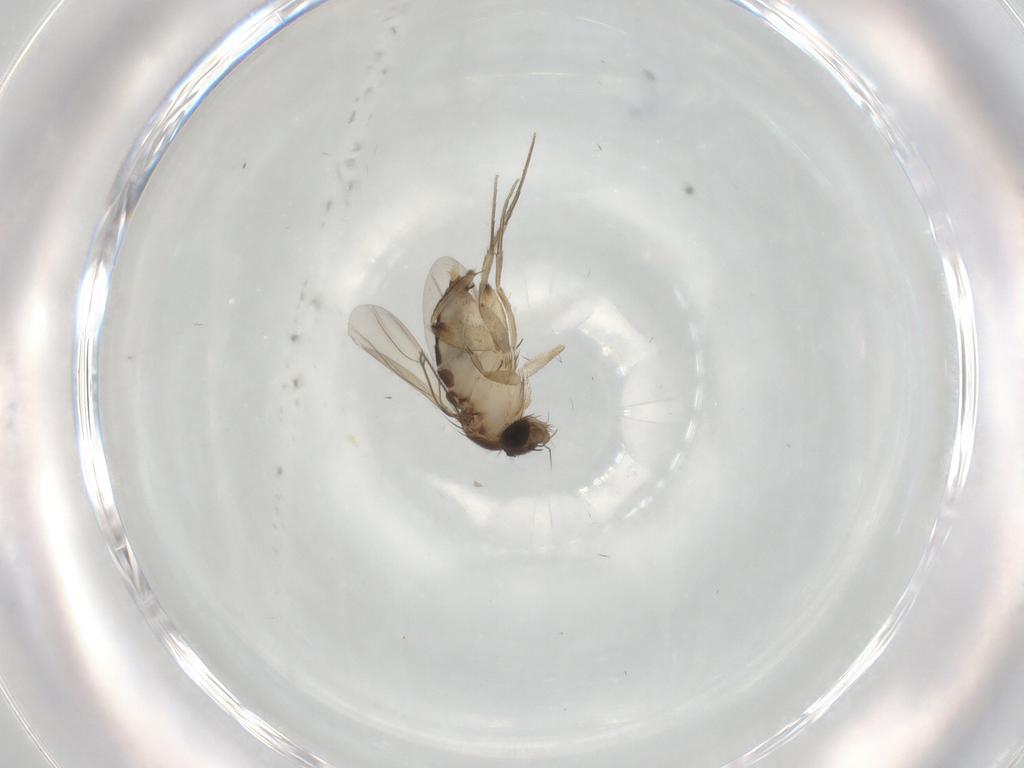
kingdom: Animalia
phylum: Arthropoda
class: Insecta
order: Diptera
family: Phoridae
